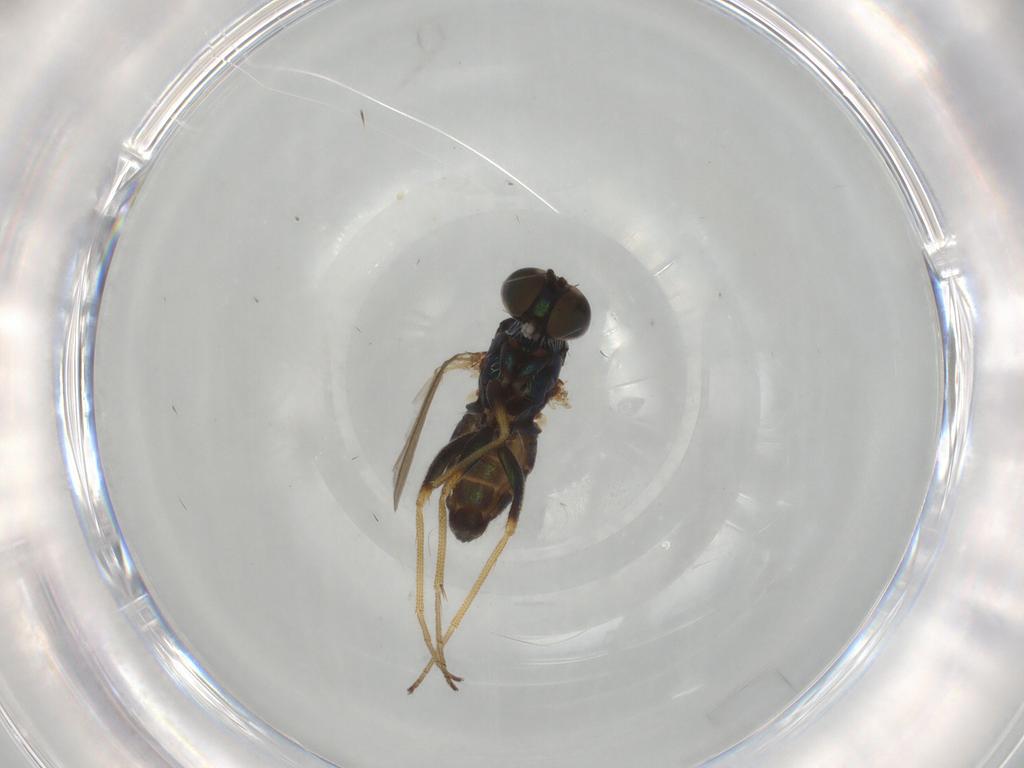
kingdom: Animalia
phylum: Arthropoda
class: Insecta
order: Diptera
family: Dolichopodidae
